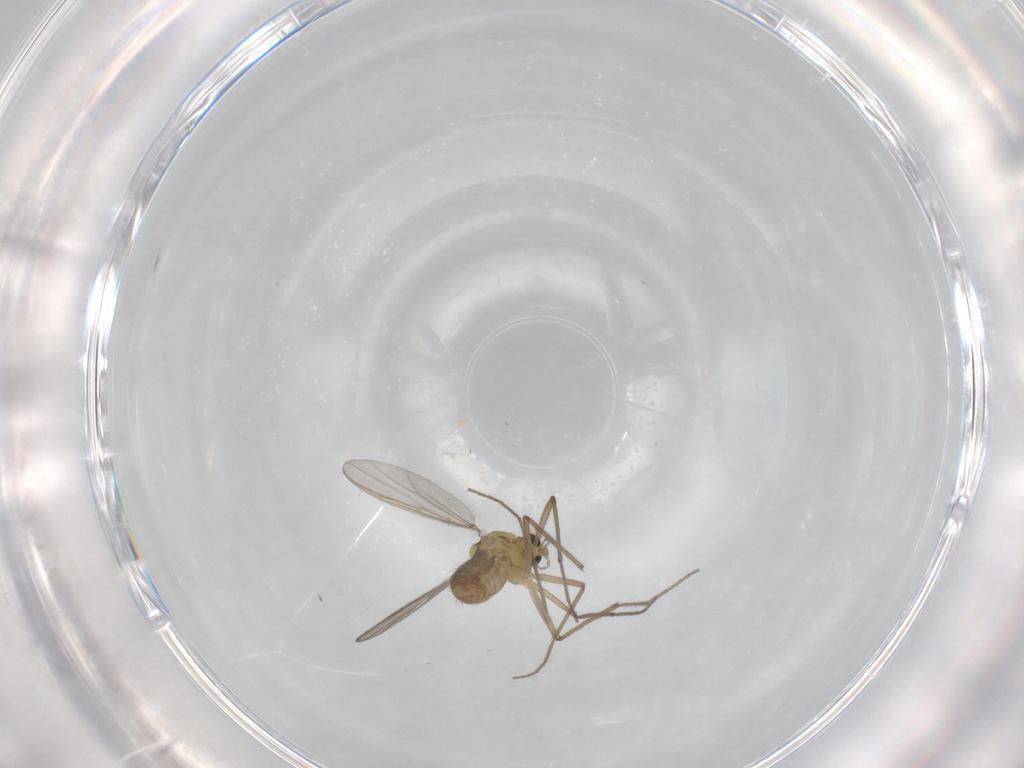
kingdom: Animalia
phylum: Arthropoda
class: Insecta
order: Diptera
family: Chironomidae
